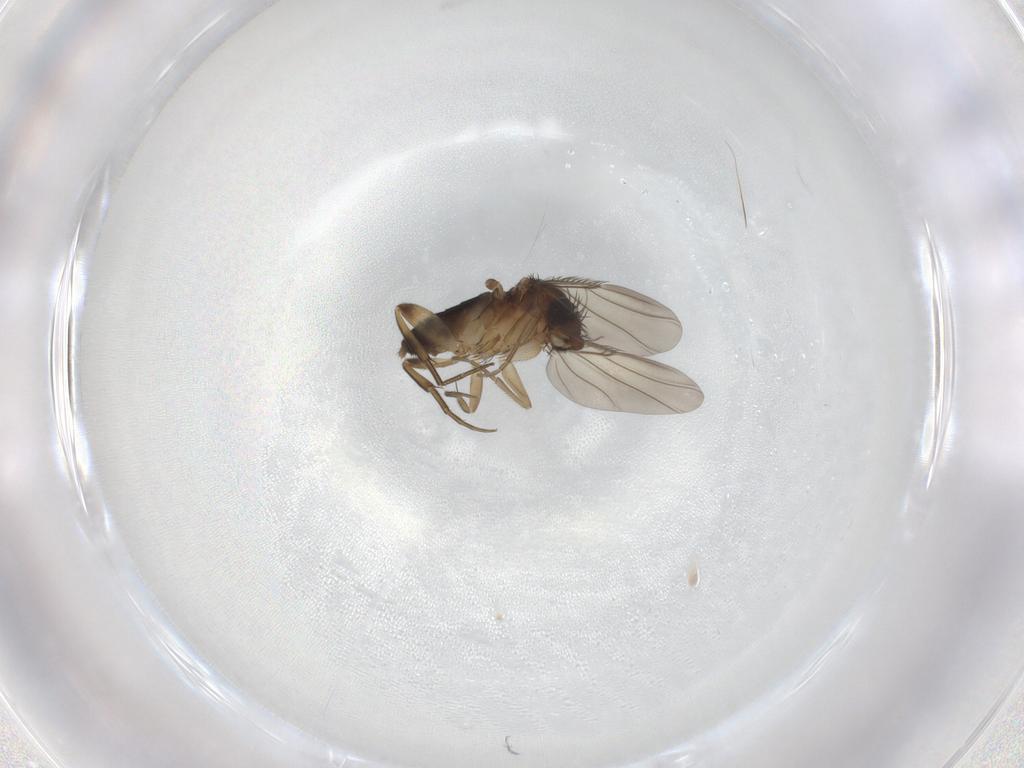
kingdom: Animalia
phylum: Arthropoda
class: Insecta
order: Diptera
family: Phoridae
